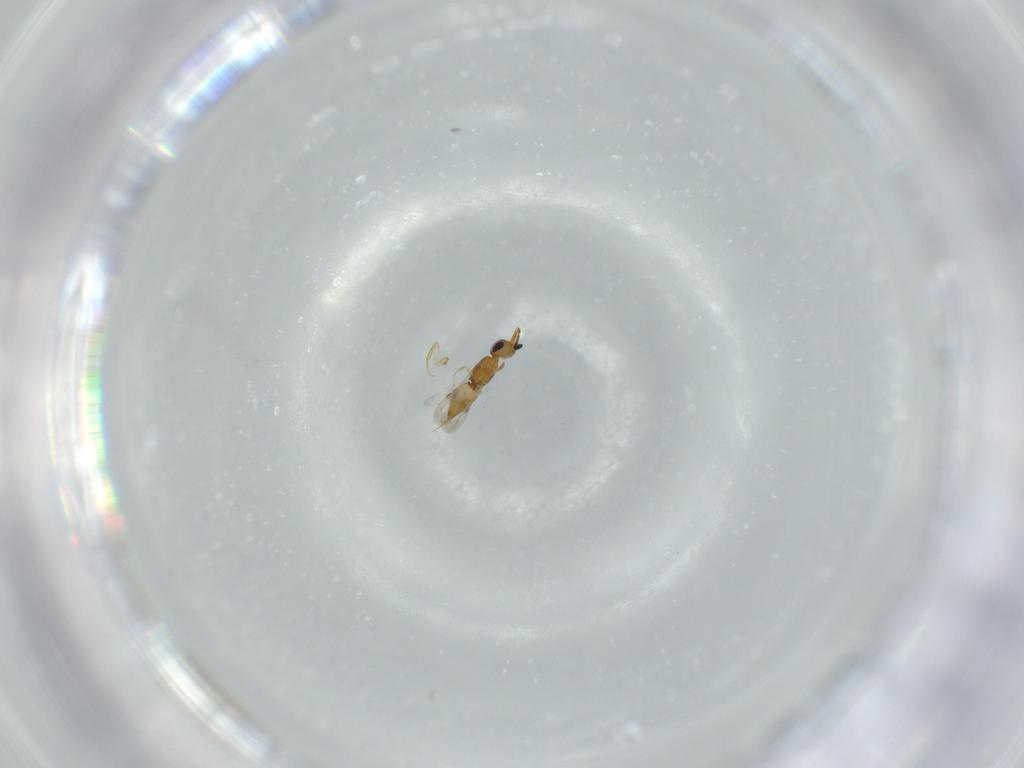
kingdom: Animalia
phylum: Arthropoda
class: Insecta
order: Hymenoptera
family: Ceraphronidae
